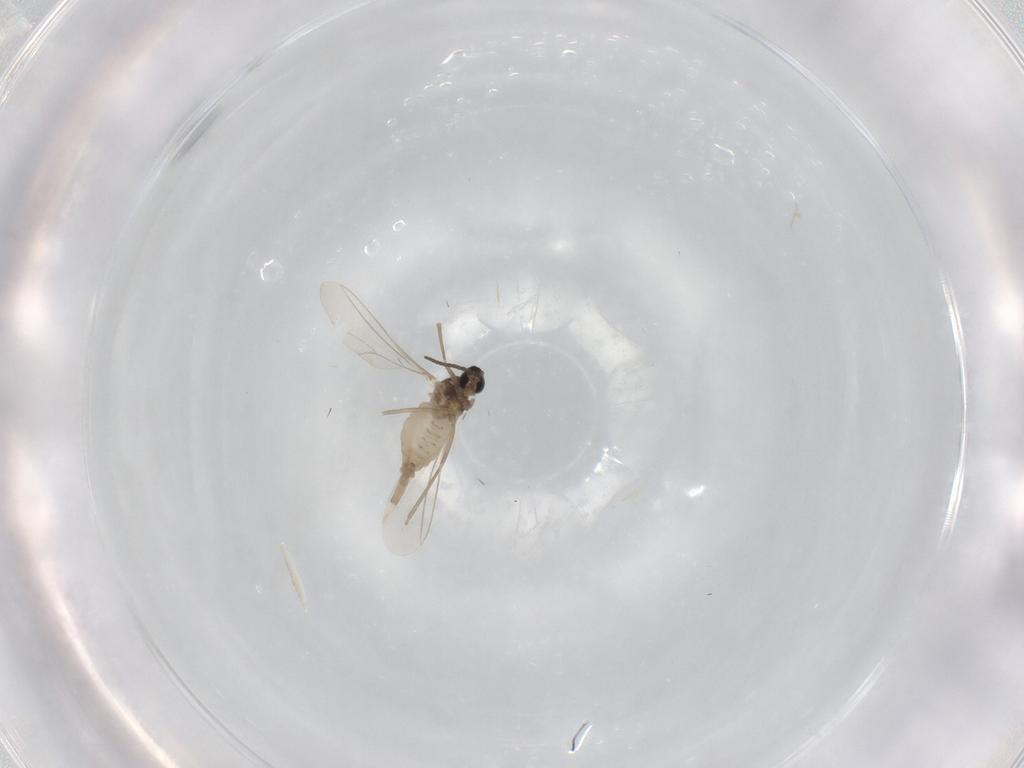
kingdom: Animalia
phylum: Arthropoda
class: Insecta
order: Diptera
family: Cecidomyiidae
